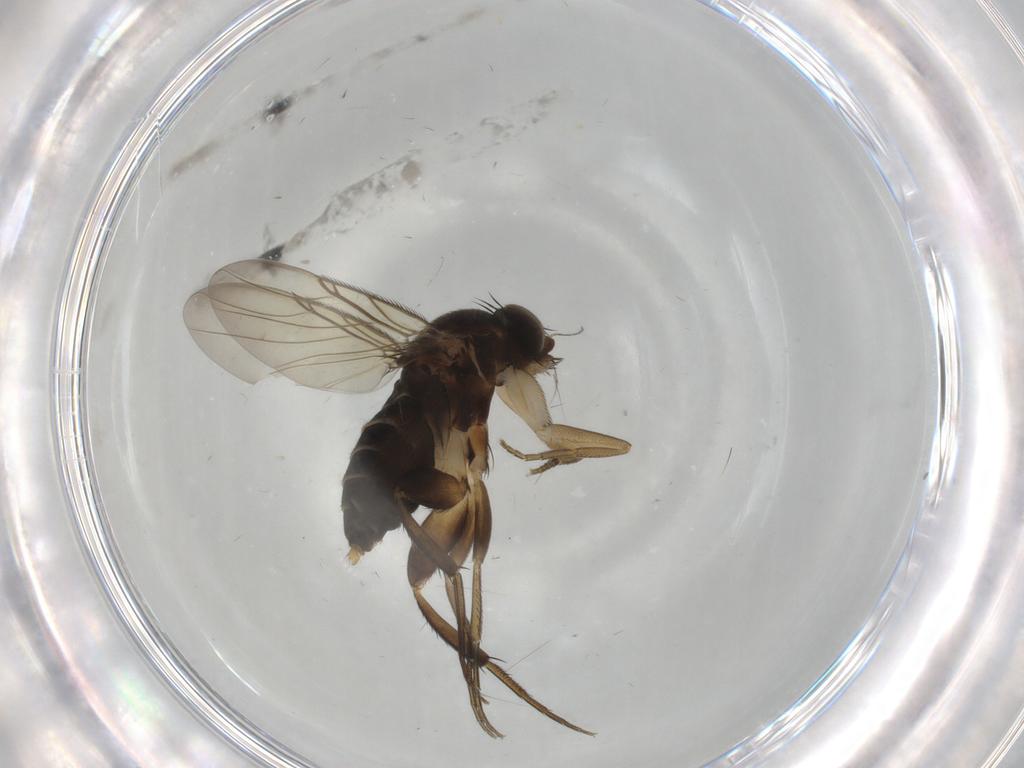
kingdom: Animalia
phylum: Arthropoda
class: Insecta
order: Diptera
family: Phoridae
